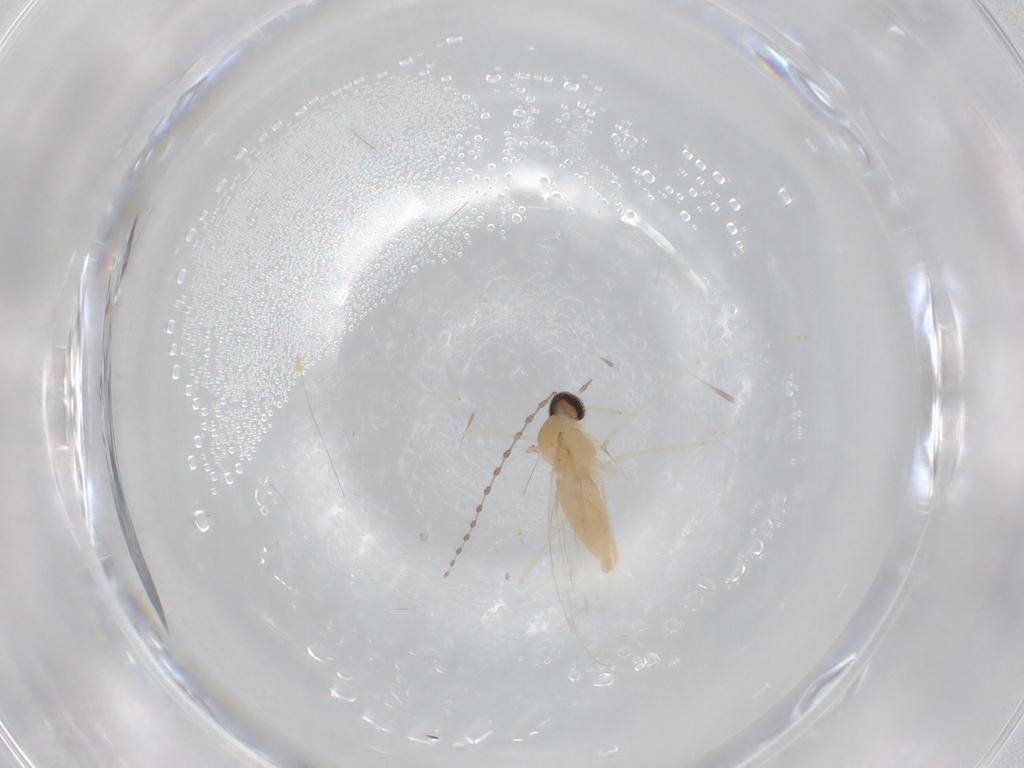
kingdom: Animalia
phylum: Arthropoda
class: Insecta
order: Diptera
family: Cecidomyiidae
